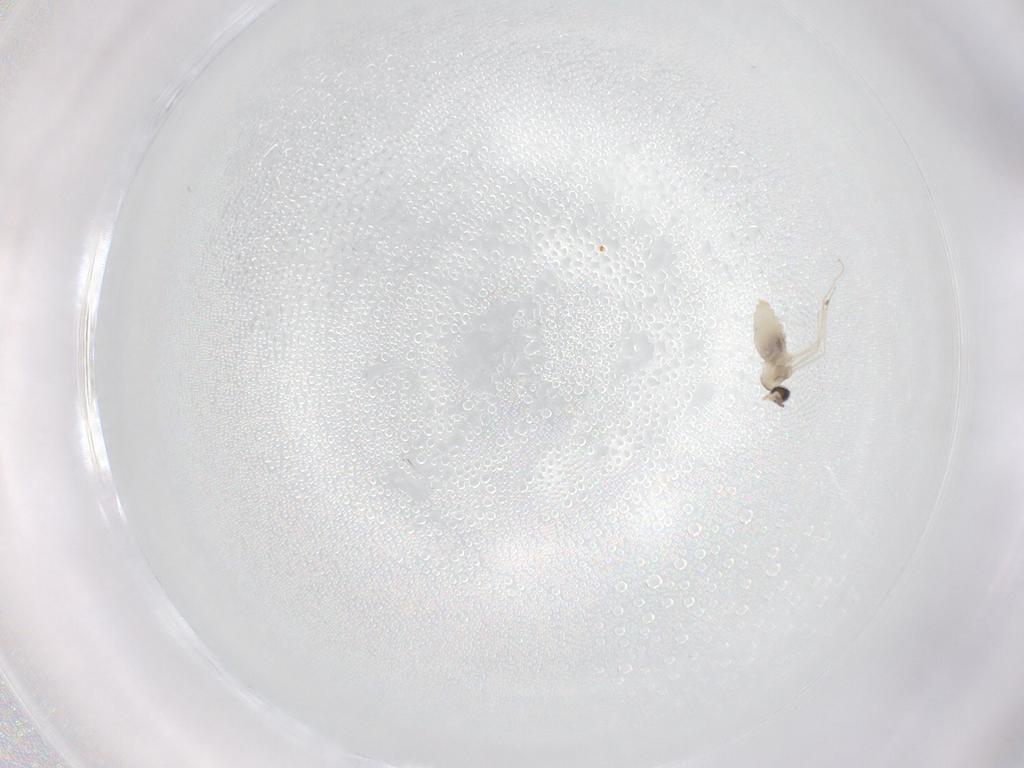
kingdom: Animalia
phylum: Arthropoda
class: Insecta
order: Diptera
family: Cecidomyiidae
